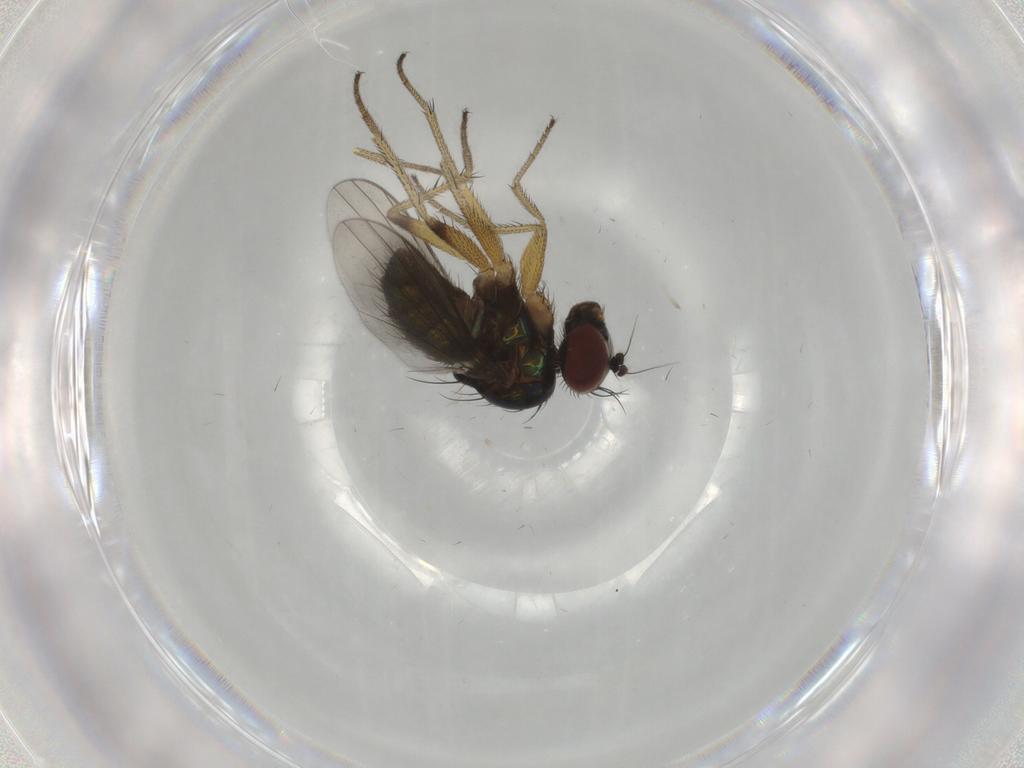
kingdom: Animalia
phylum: Arthropoda
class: Insecta
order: Diptera
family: Dolichopodidae
